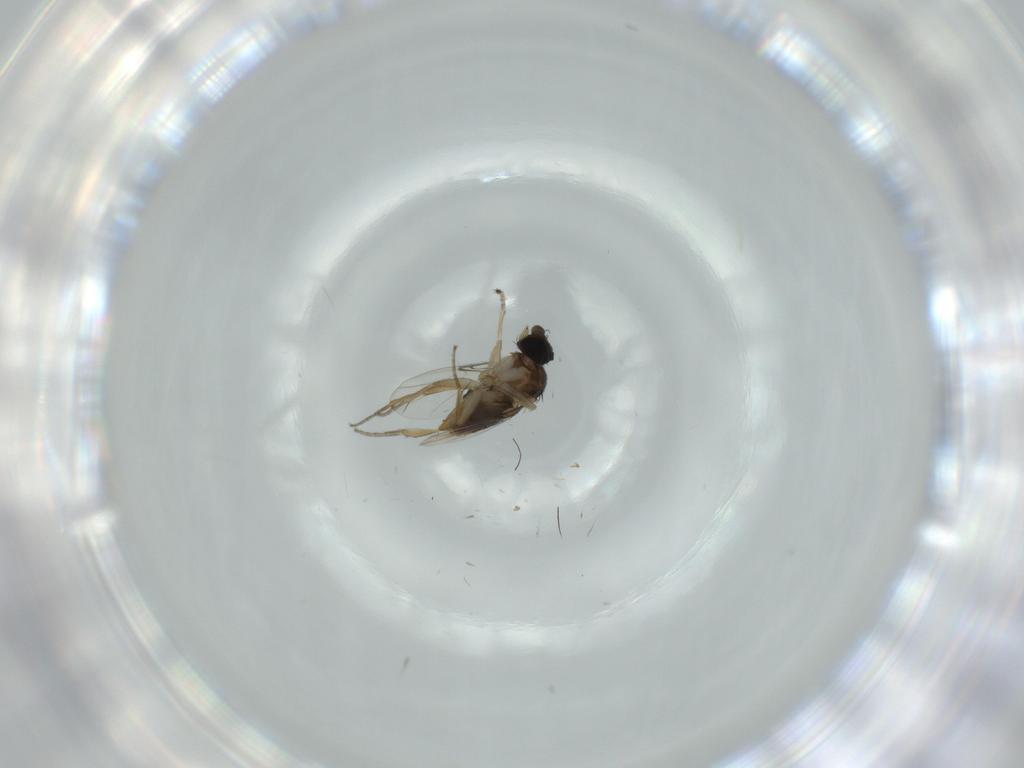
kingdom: Animalia
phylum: Arthropoda
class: Insecta
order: Diptera
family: Phoridae
